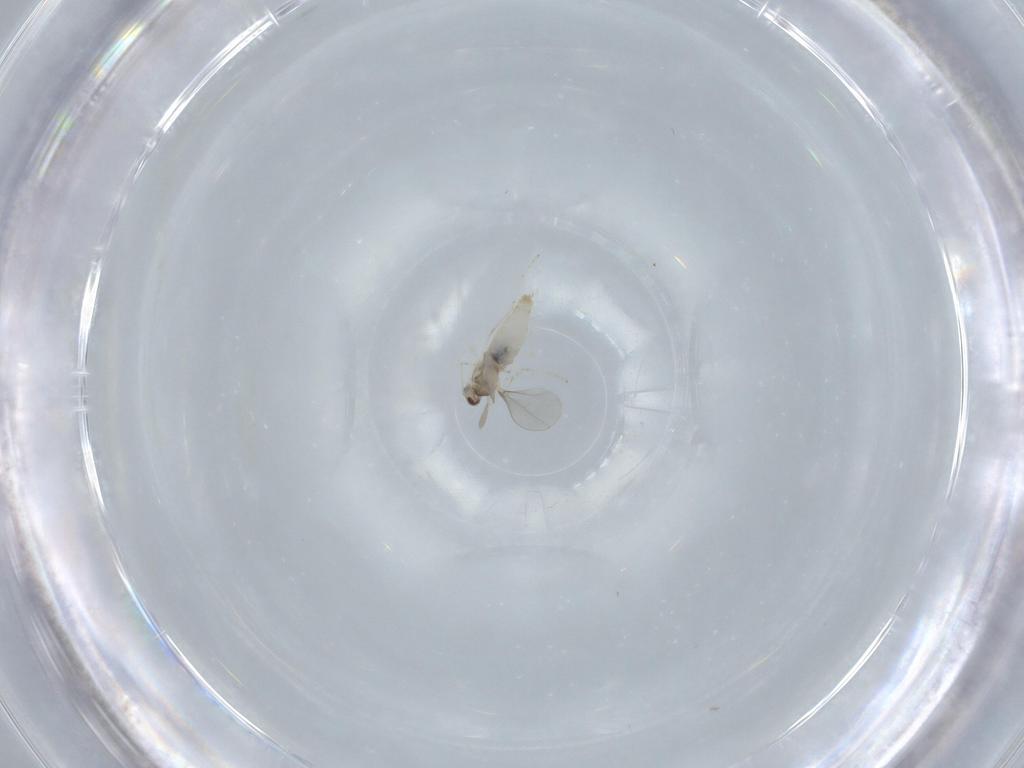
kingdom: Animalia
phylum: Arthropoda
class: Insecta
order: Diptera
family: Cecidomyiidae
